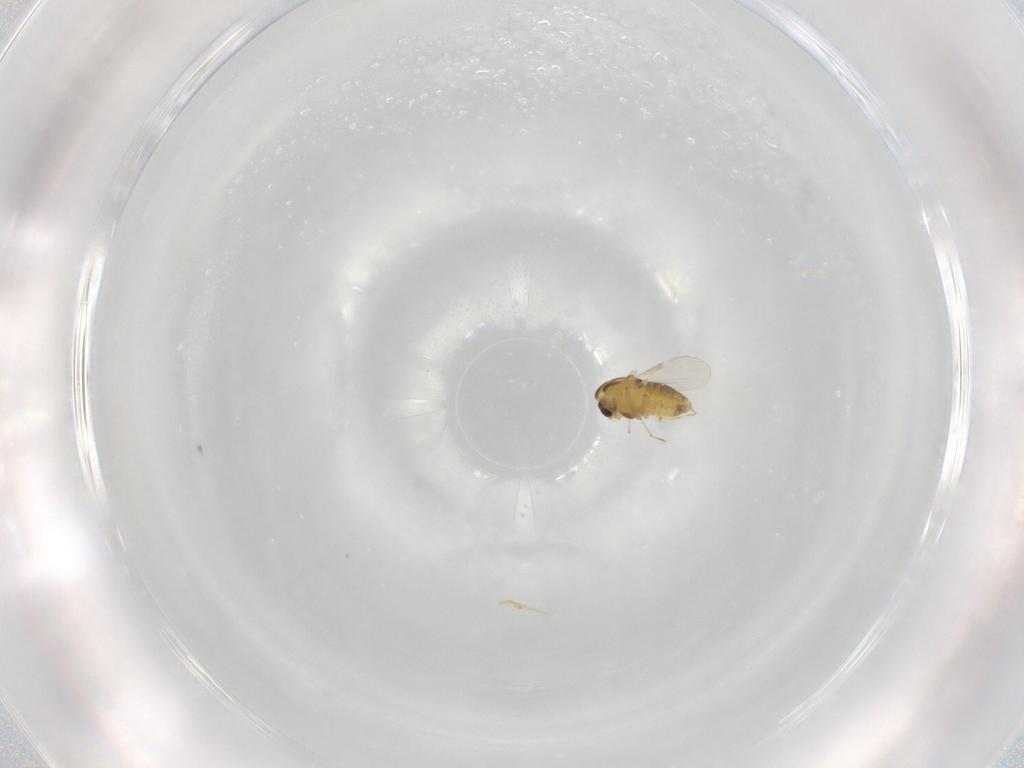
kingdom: Animalia
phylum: Arthropoda
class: Insecta
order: Diptera
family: Chironomidae
